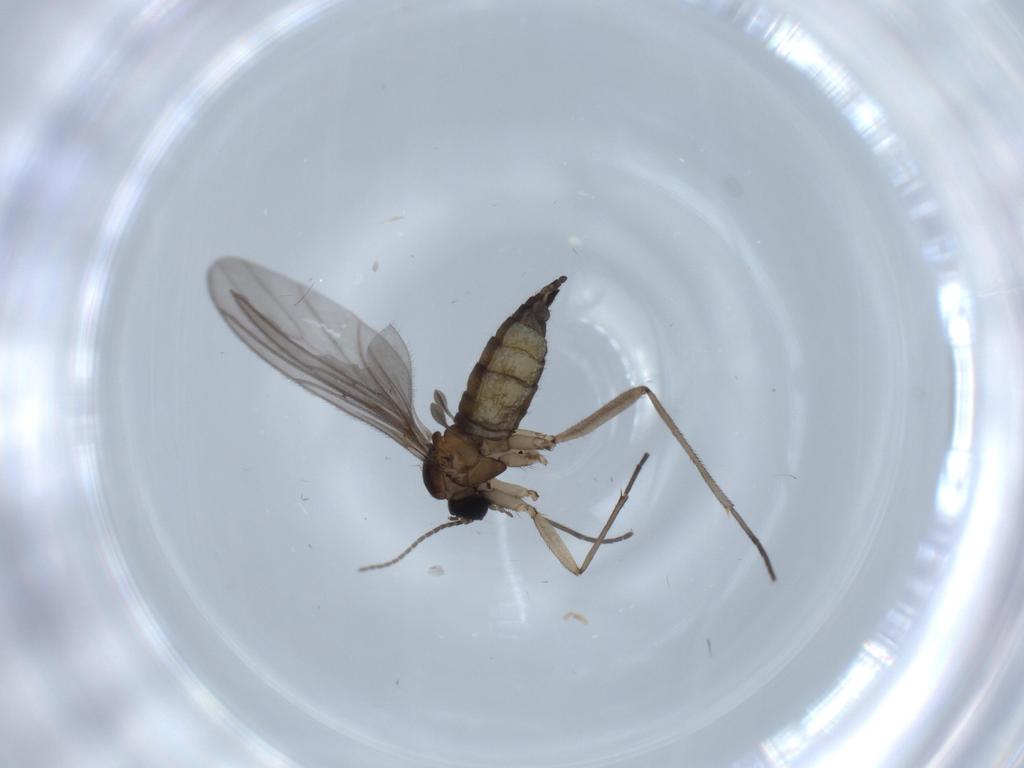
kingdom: Animalia
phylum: Arthropoda
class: Insecta
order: Diptera
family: Sciaridae
